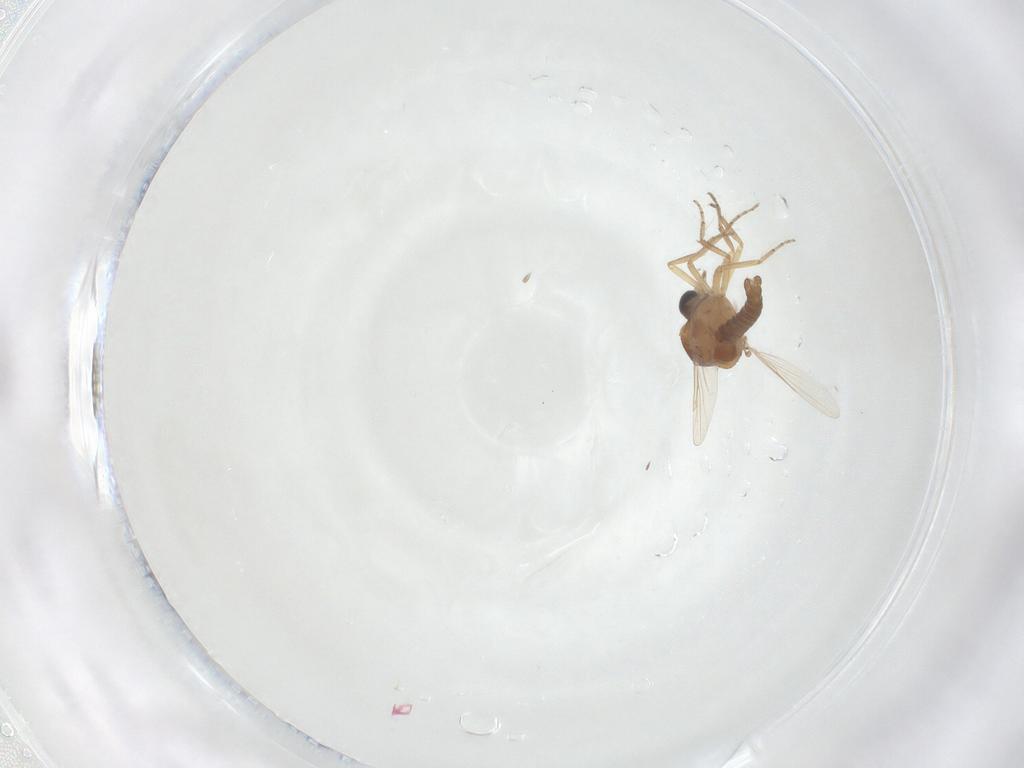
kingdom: Animalia
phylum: Arthropoda
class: Insecta
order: Diptera
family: Ceratopogonidae
